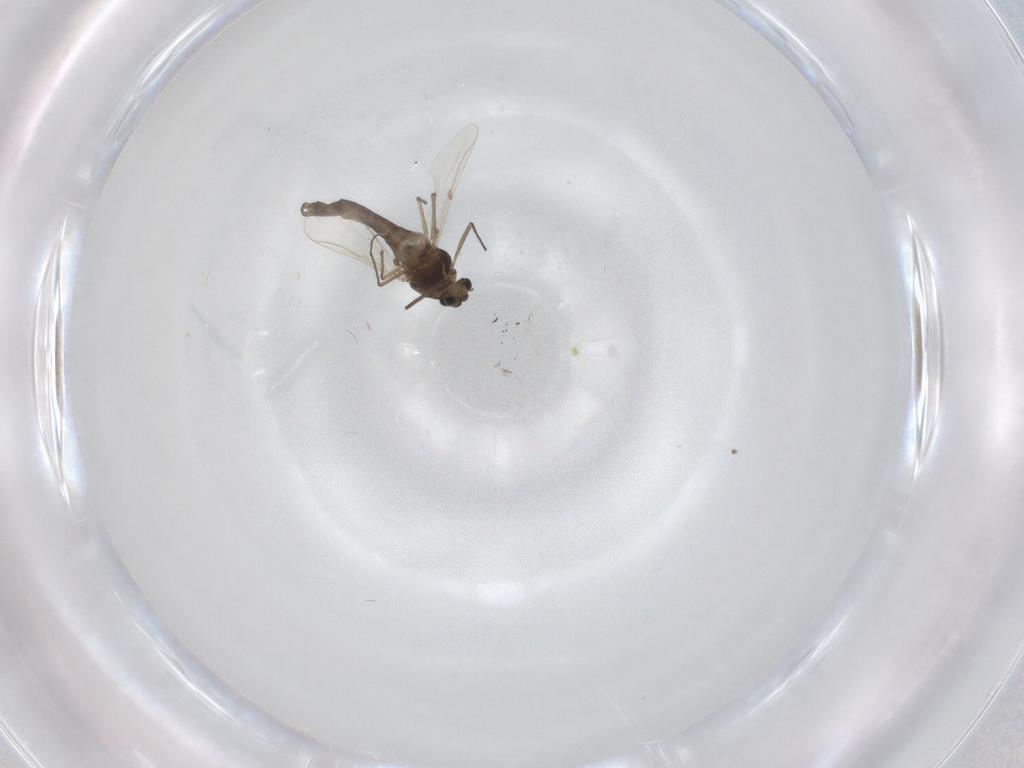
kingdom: Animalia
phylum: Arthropoda
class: Insecta
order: Diptera
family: Chironomidae
